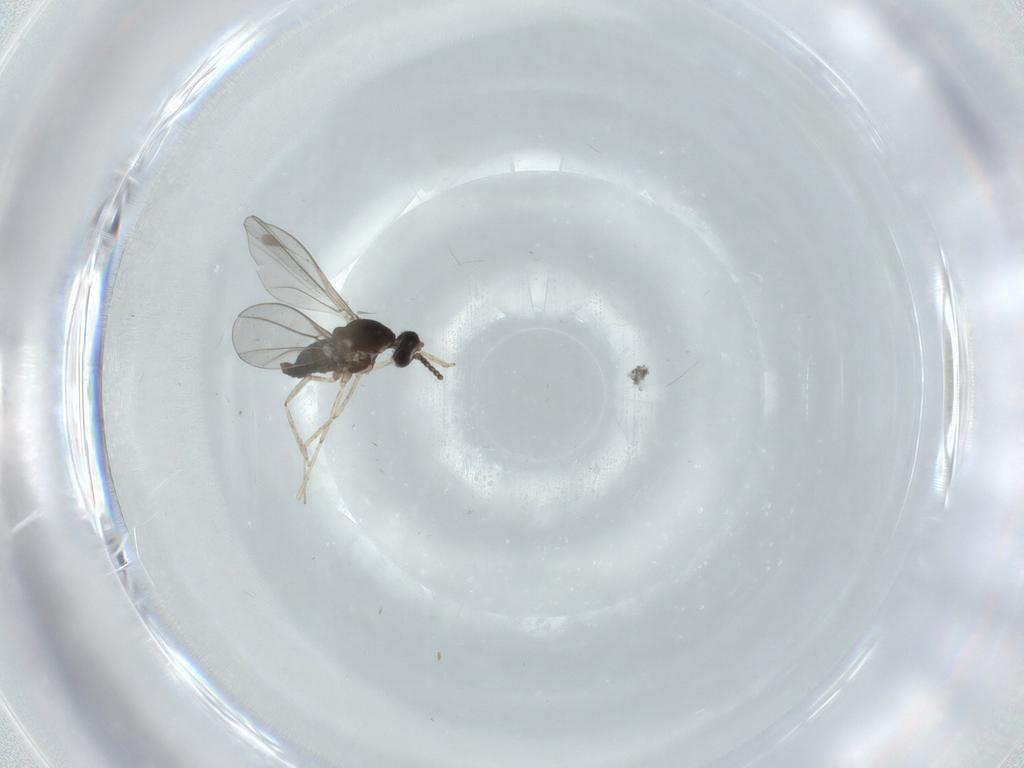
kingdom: Animalia
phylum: Arthropoda
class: Insecta
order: Diptera
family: Cecidomyiidae
